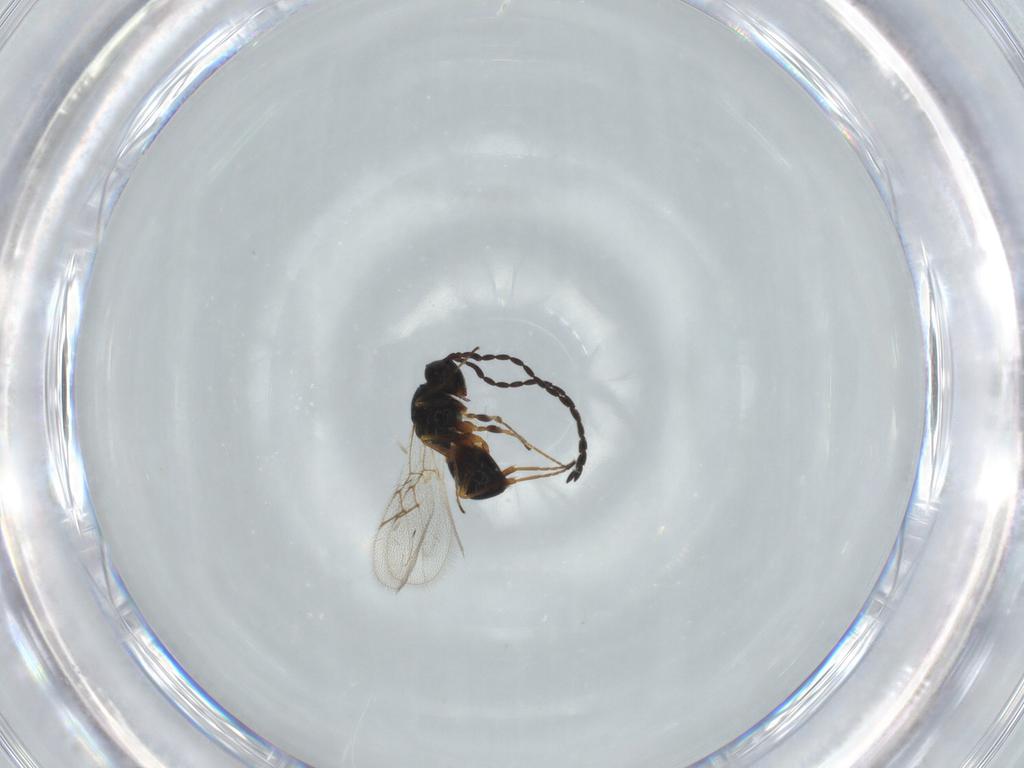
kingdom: Animalia
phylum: Arthropoda
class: Insecta
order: Hymenoptera
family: Figitidae
